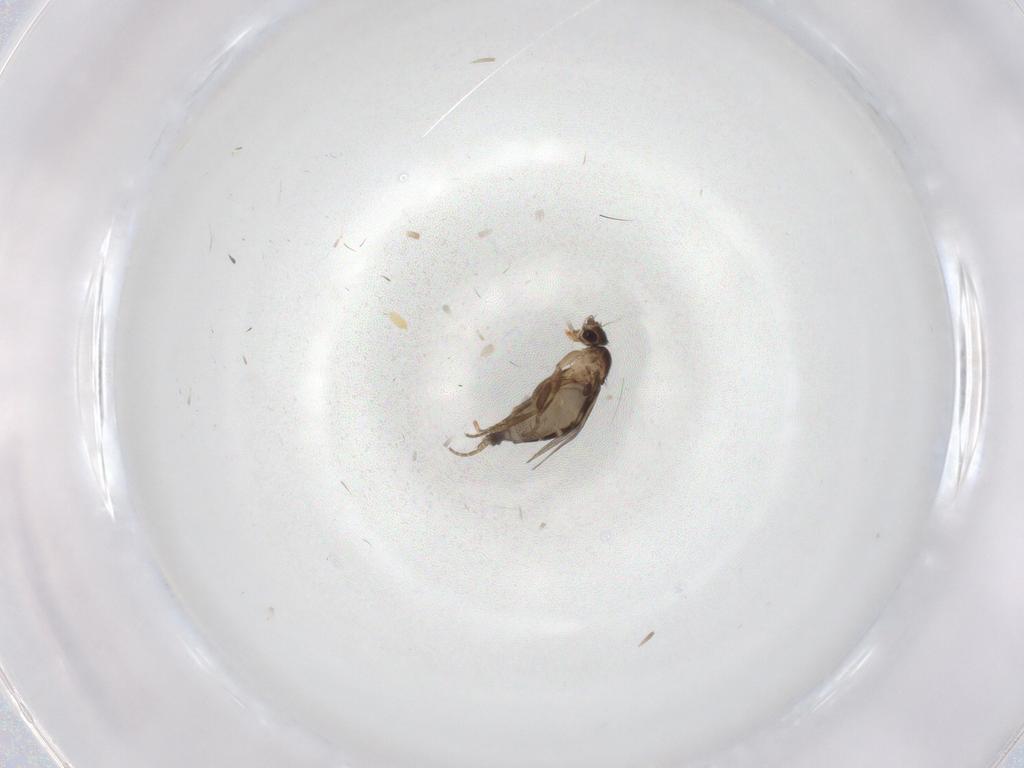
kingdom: Animalia
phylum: Arthropoda
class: Insecta
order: Diptera
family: Phoridae
